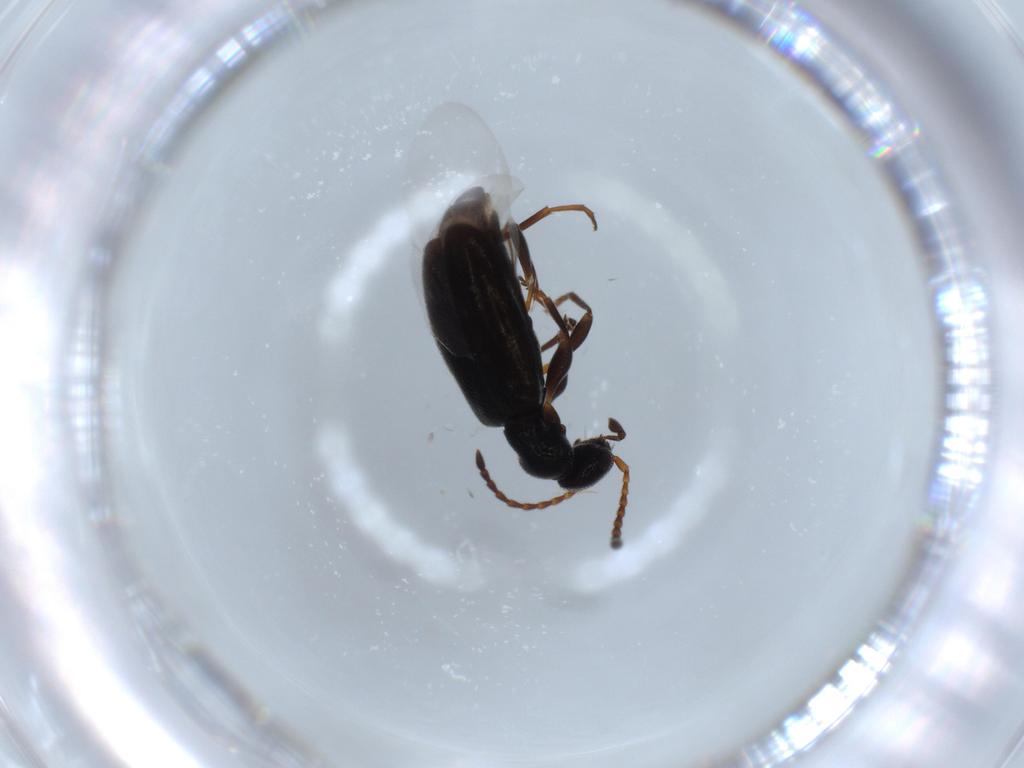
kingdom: Animalia
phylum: Arthropoda
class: Insecta
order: Coleoptera
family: Anthicidae
